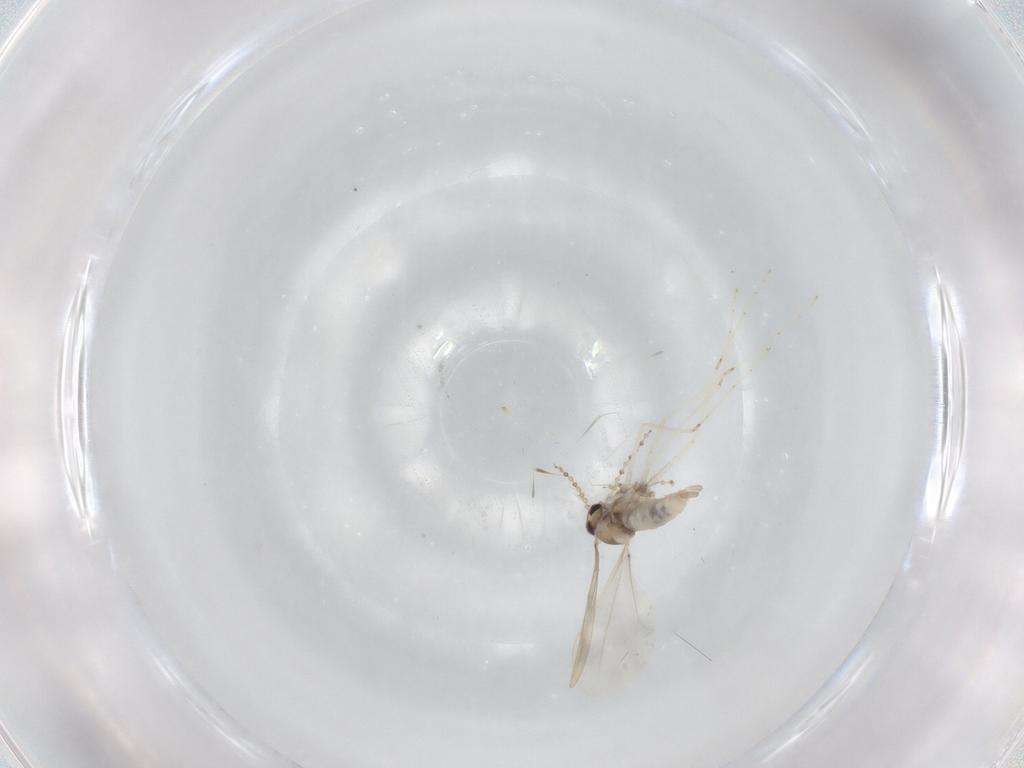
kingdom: Animalia
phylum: Arthropoda
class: Insecta
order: Diptera
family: Cecidomyiidae
